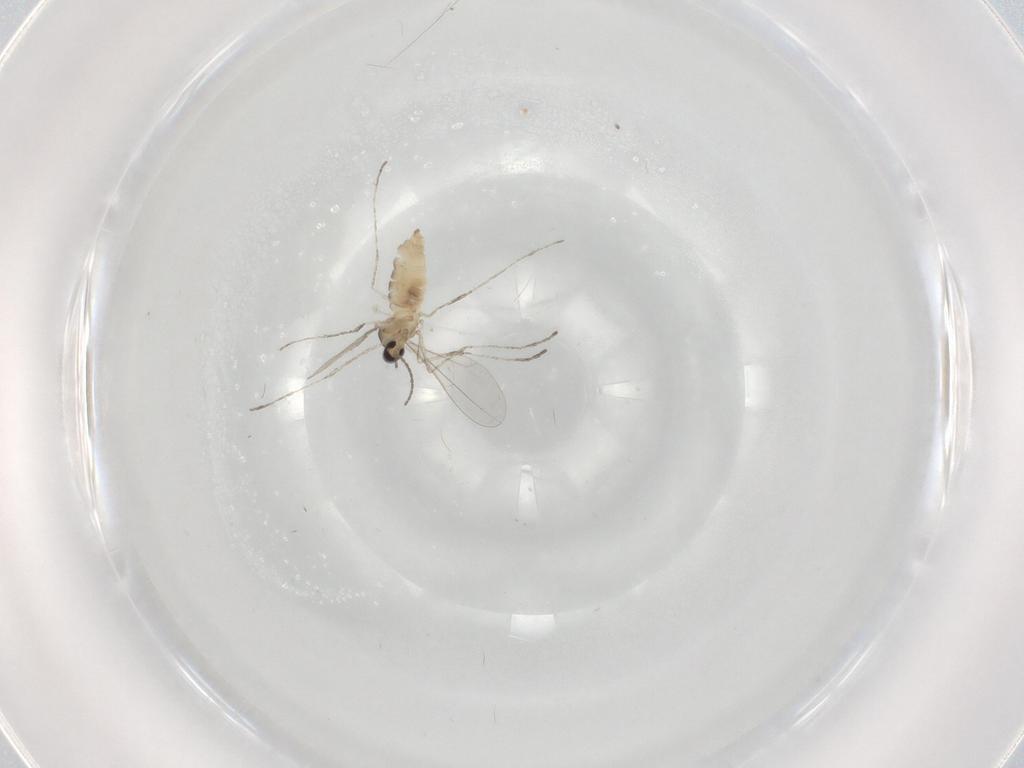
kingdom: Animalia
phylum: Arthropoda
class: Insecta
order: Diptera
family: Cecidomyiidae
